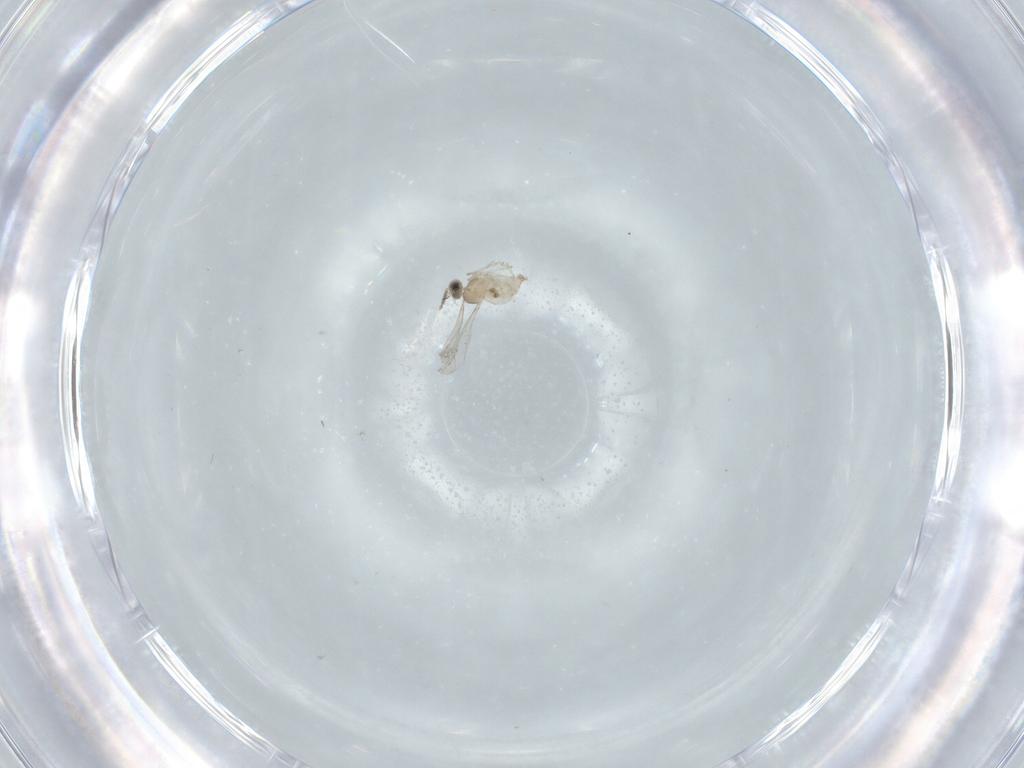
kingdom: Animalia
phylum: Arthropoda
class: Insecta
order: Diptera
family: Cecidomyiidae
